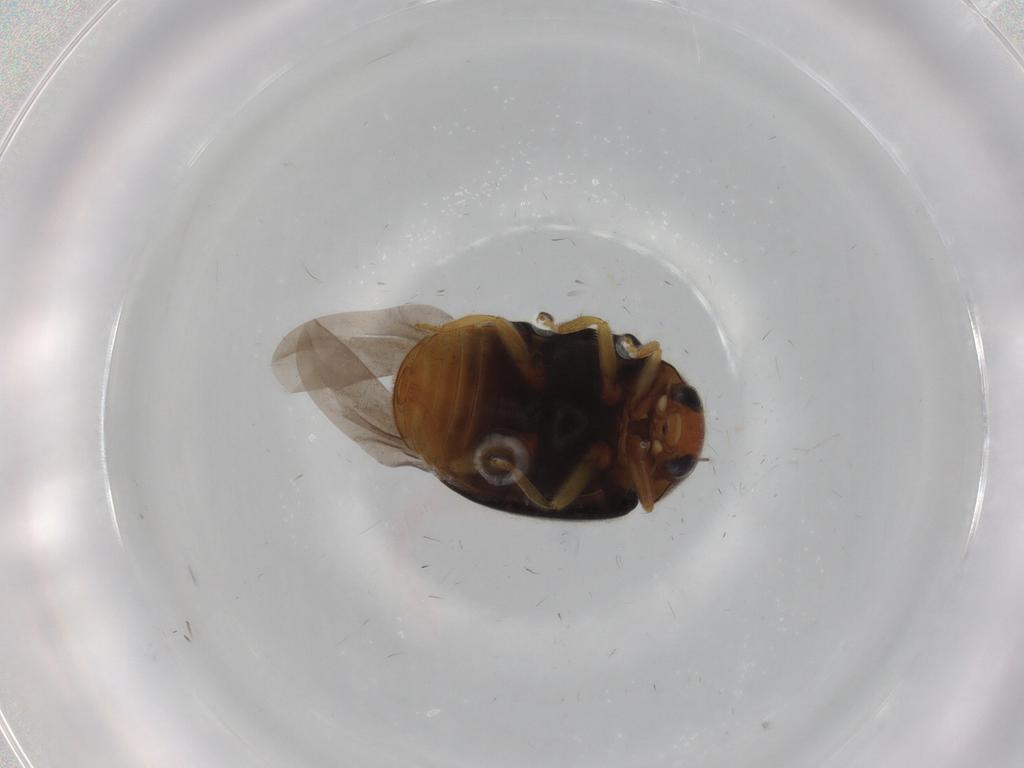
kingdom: Animalia
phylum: Arthropoda
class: Insecta
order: Coleoptera
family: Coccinellidae
